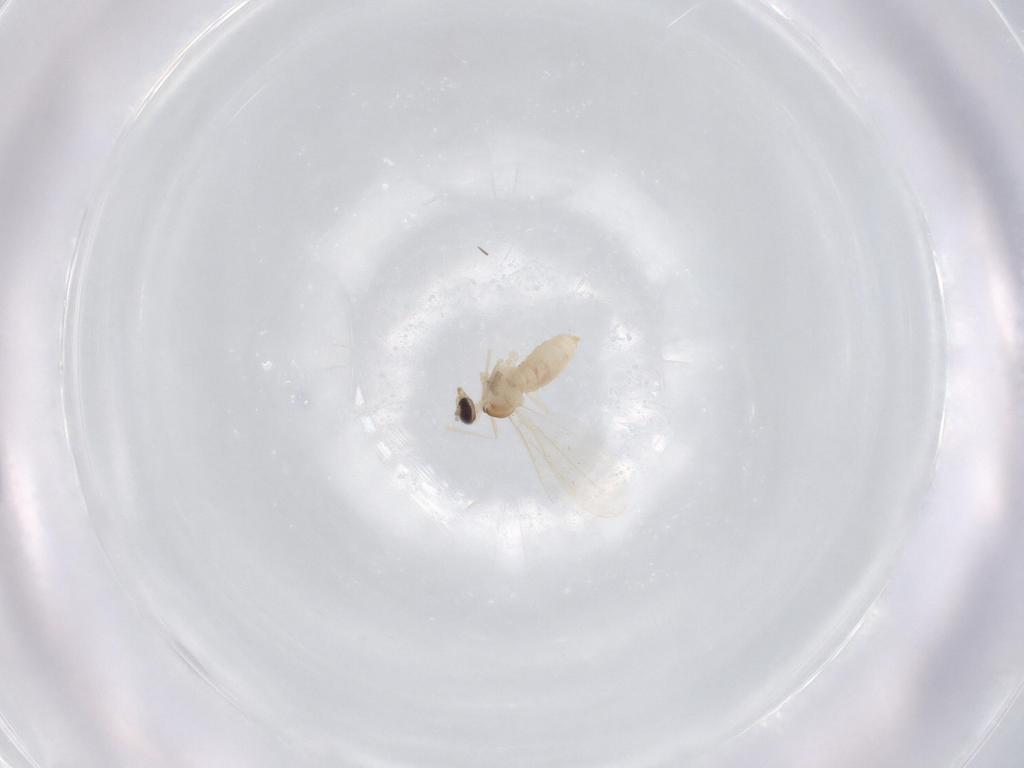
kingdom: Animalia
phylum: Arthropoda
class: Insecta
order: Diptera
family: Cecidomyiidae
